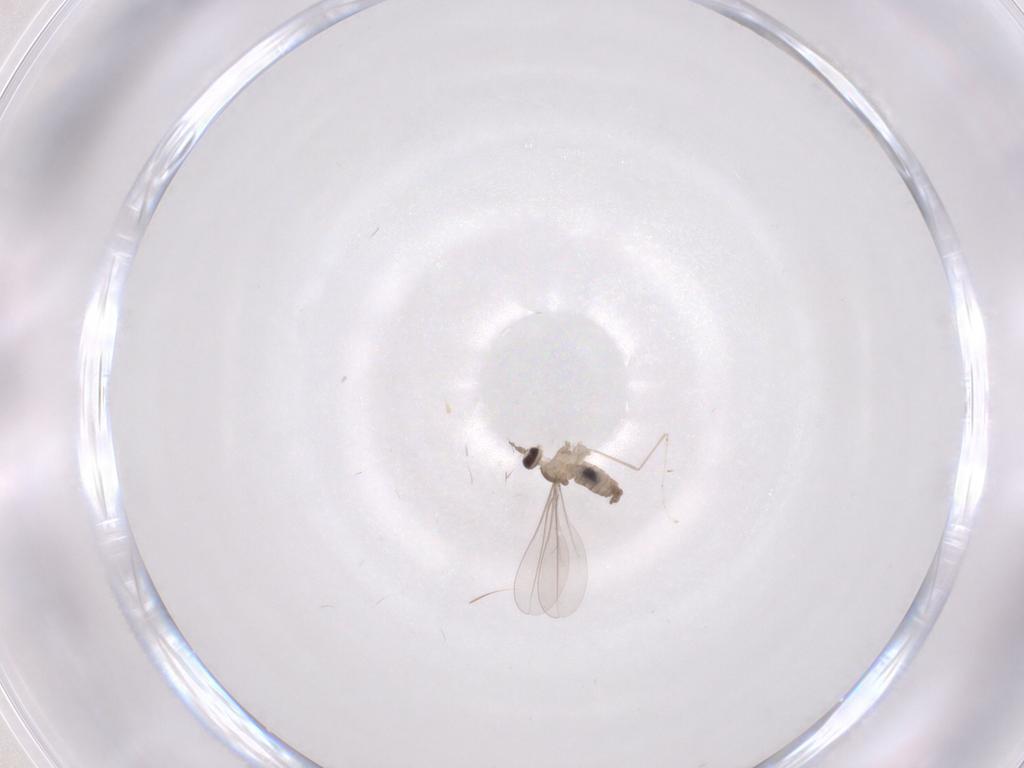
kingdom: Animalia
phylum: Arthropoda
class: Insecta
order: Diptera
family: Cecidomyiidae
